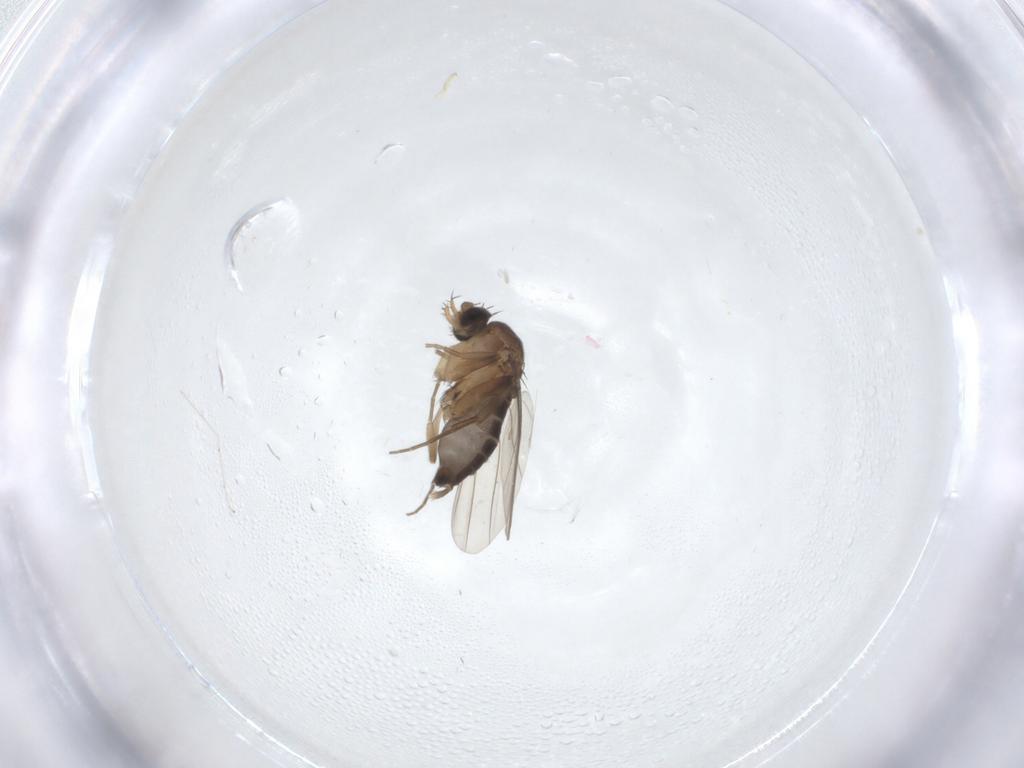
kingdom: Animalia
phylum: Arthropoda
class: Insecta
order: Diptera
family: Phoridae
